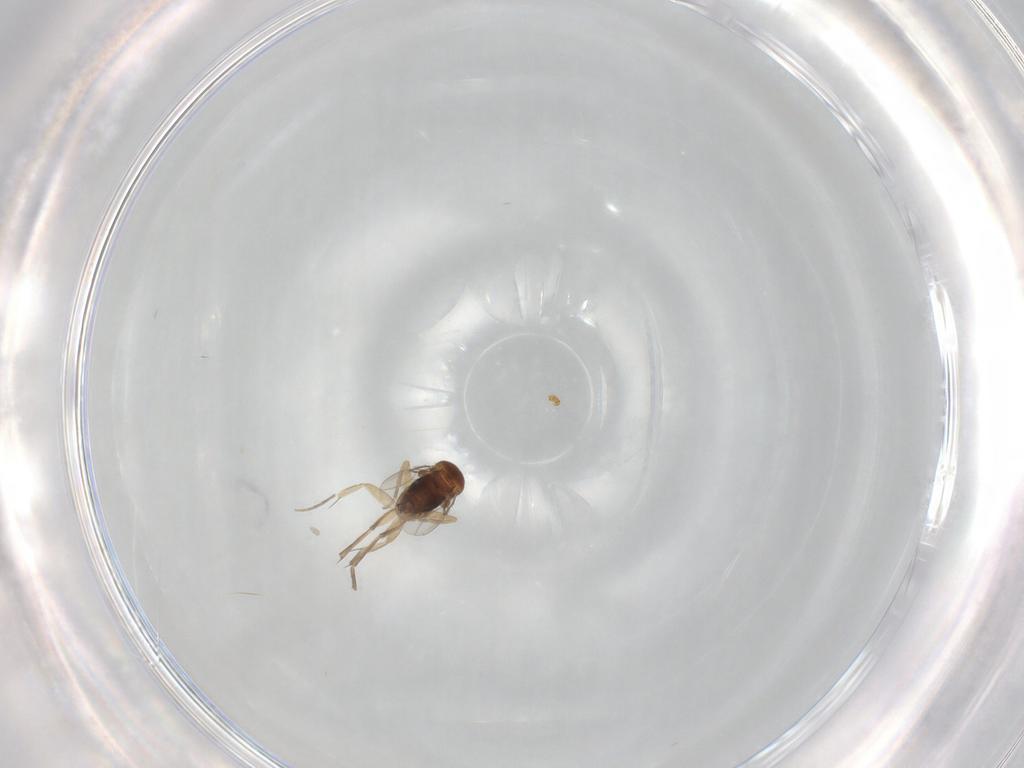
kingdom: Animalia
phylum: Arthropoda
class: Insecta
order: Diptera
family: Phoridae
